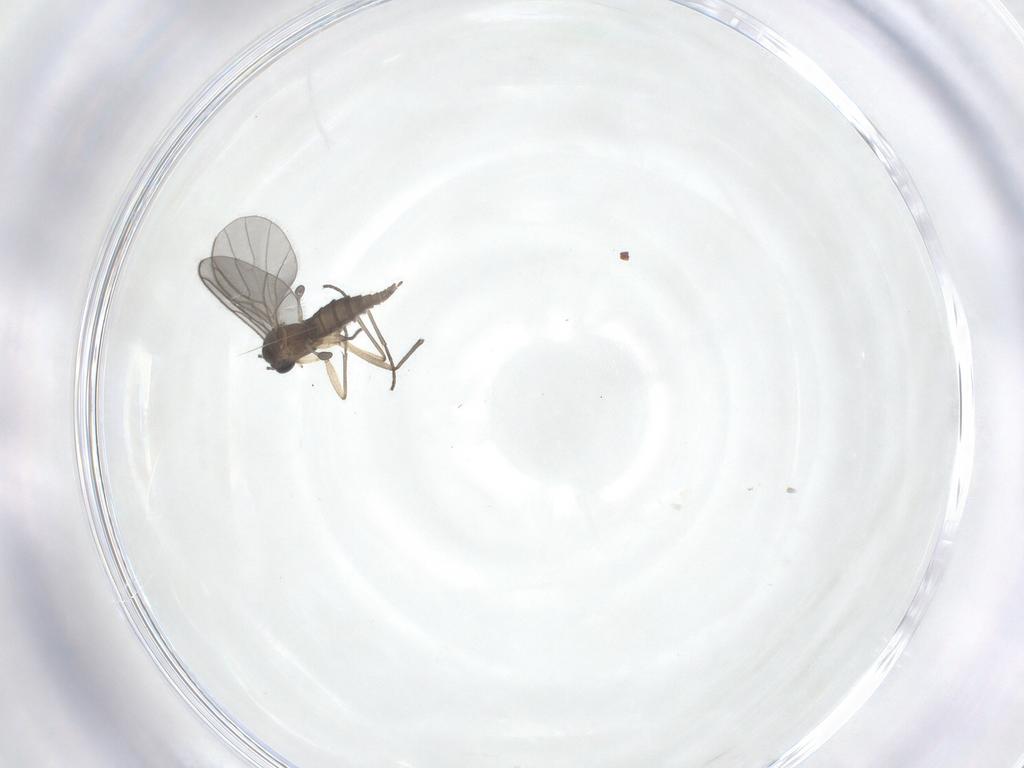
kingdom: Animalia
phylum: Arthropoda
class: Insecta
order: Diptera
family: Sciaridae
